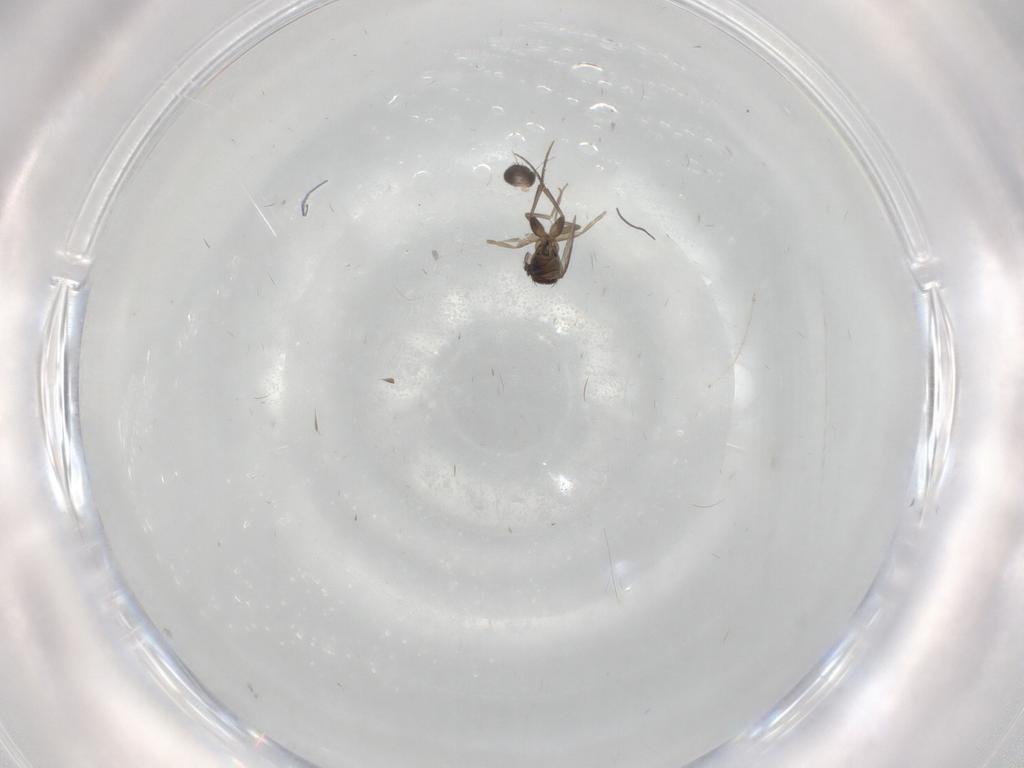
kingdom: Animalia
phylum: Arthropoda
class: Insecta
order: Diptera
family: Phoridae
